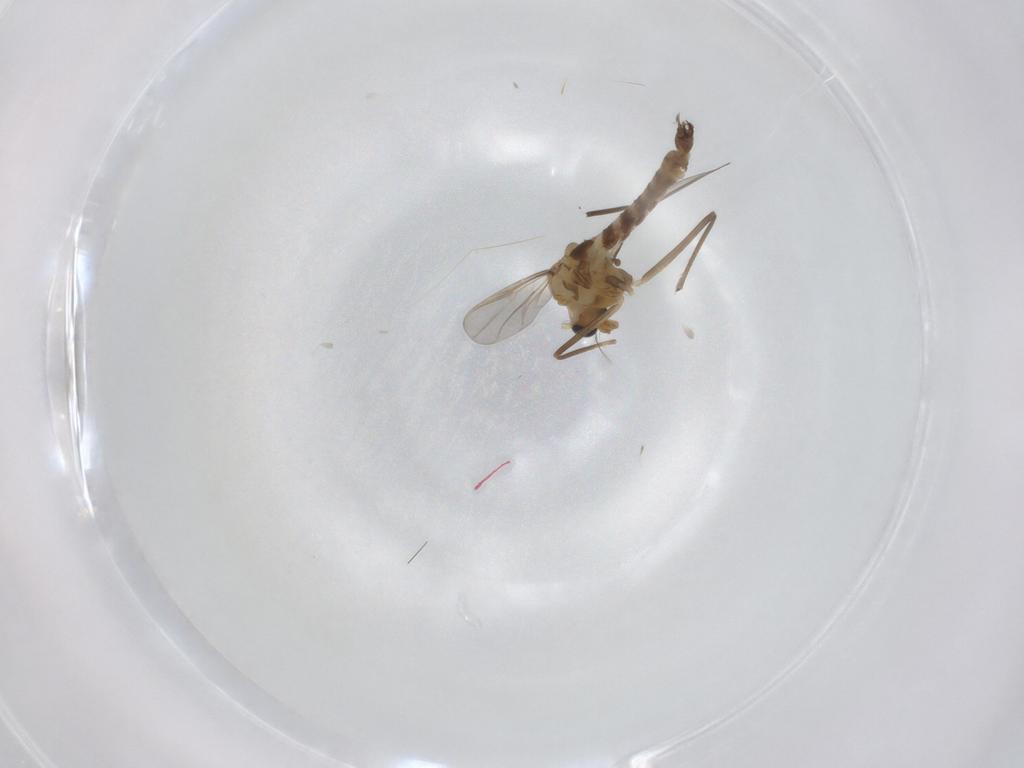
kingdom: Animalia
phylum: Arthropoda
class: Insecta
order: Diptera
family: Chironomidae
